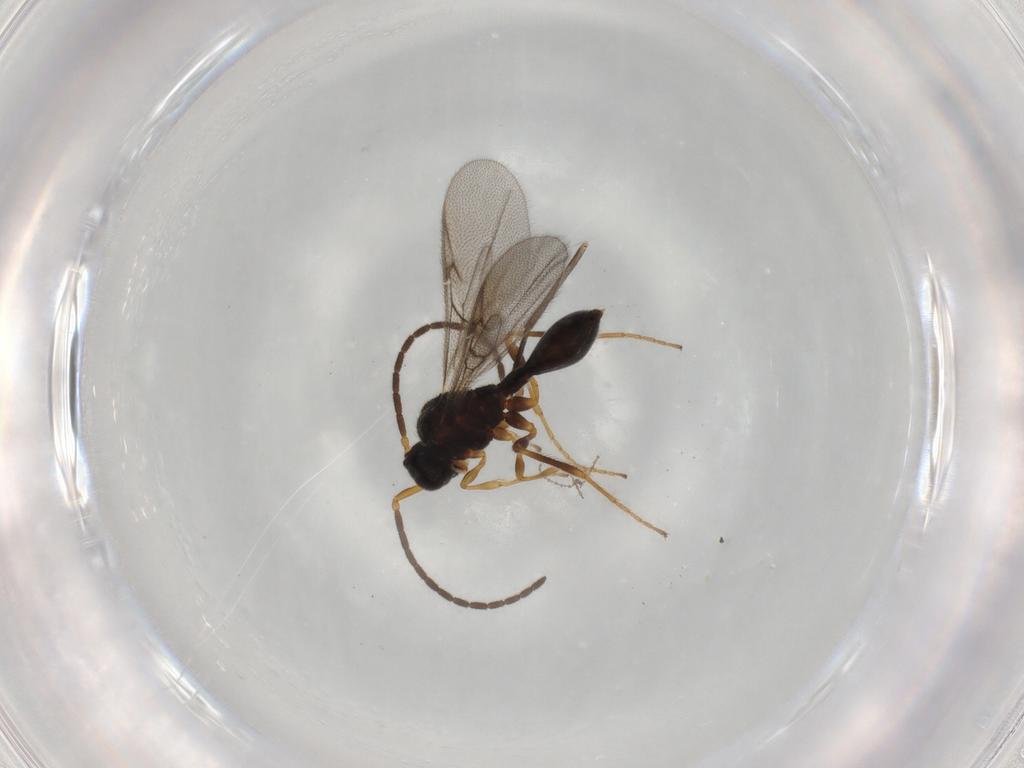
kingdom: Animalia
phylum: Arthropoda
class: Insecta
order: Hymenoptera
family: Diapriidae
